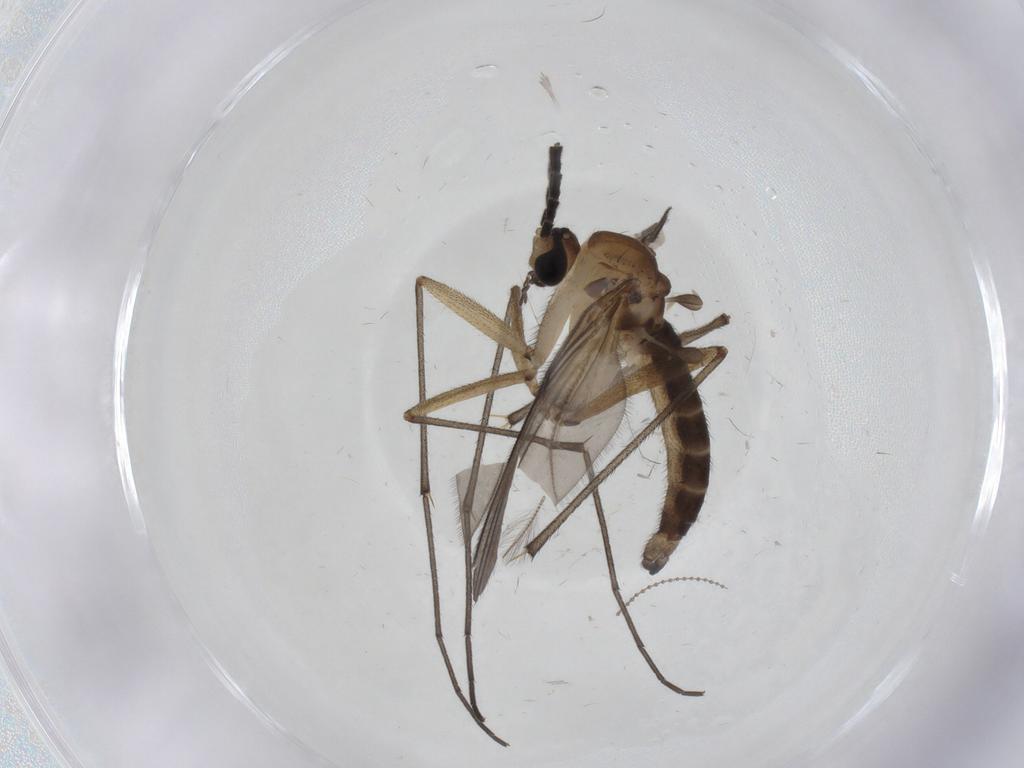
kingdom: Animalia
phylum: Arthropoda
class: Insecta
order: Diptera
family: Sciaridae
